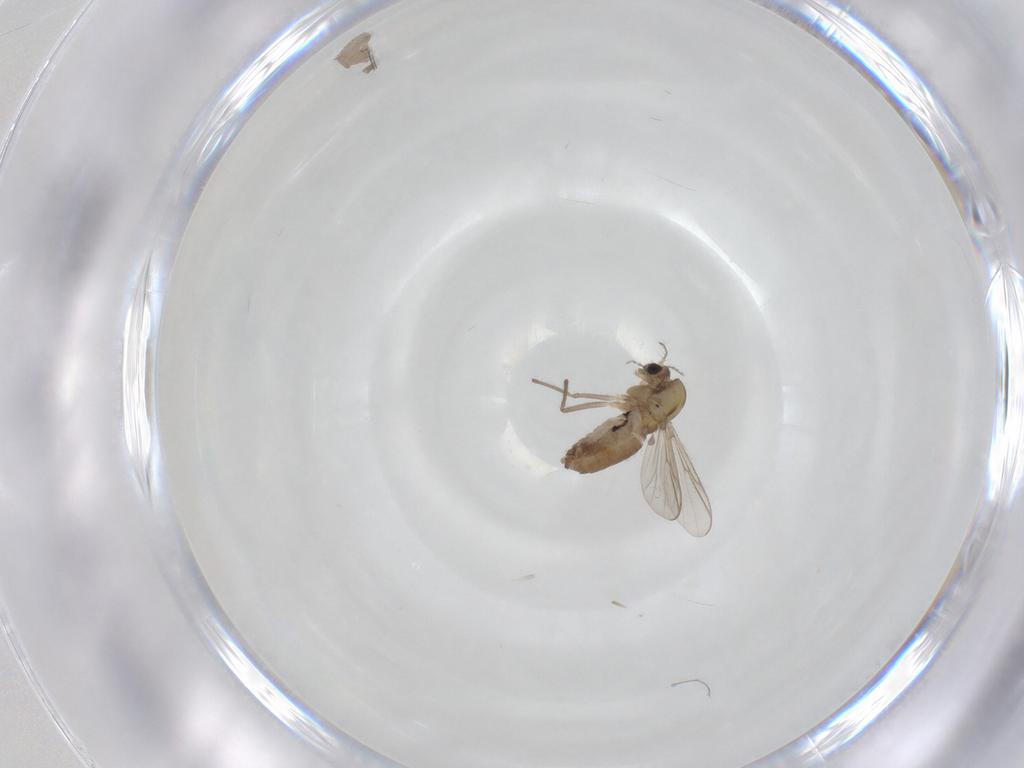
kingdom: Animalia
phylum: Arthropoda
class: Insecta
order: Diptera
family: Chironomidae
